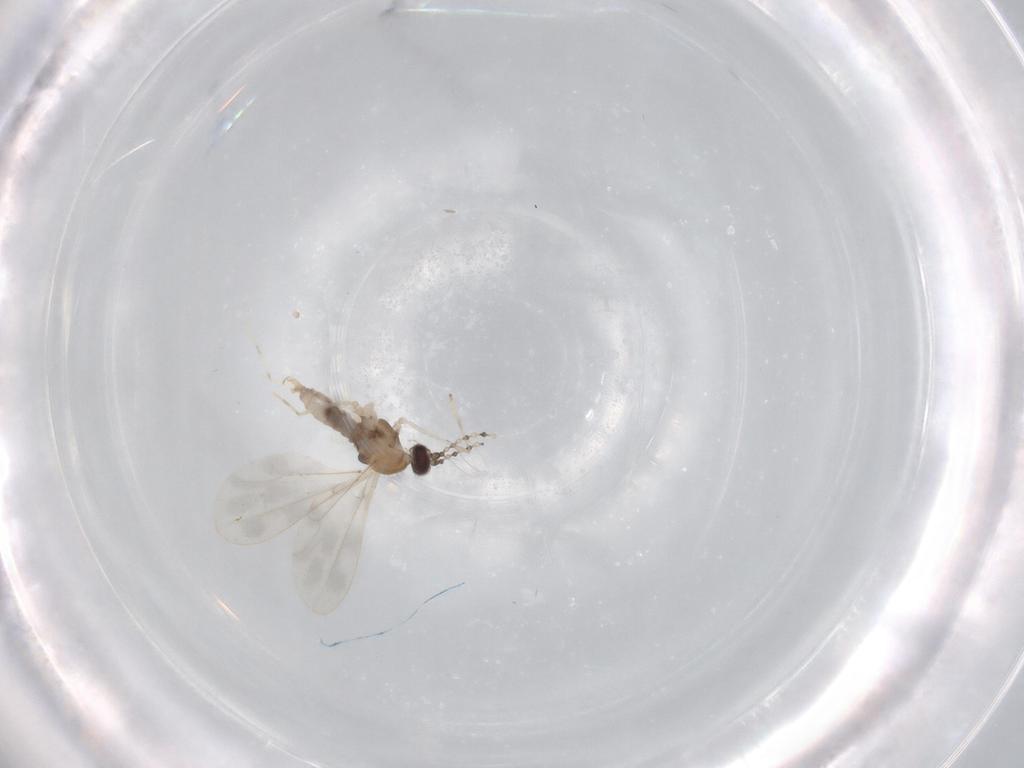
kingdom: Animalia
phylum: Arthropoda
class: Insecta
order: Diptera
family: Cecidomyiidae
